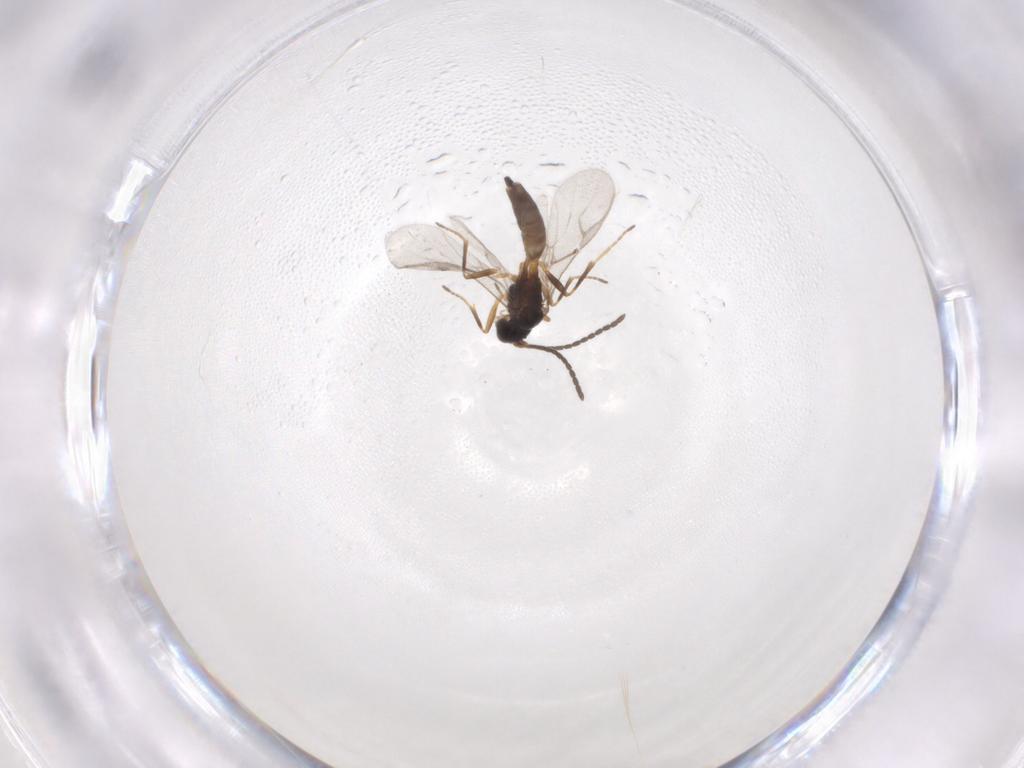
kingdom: Animalia
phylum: Arthropoda
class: Insecta
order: Hymenoptera
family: Braconidae
